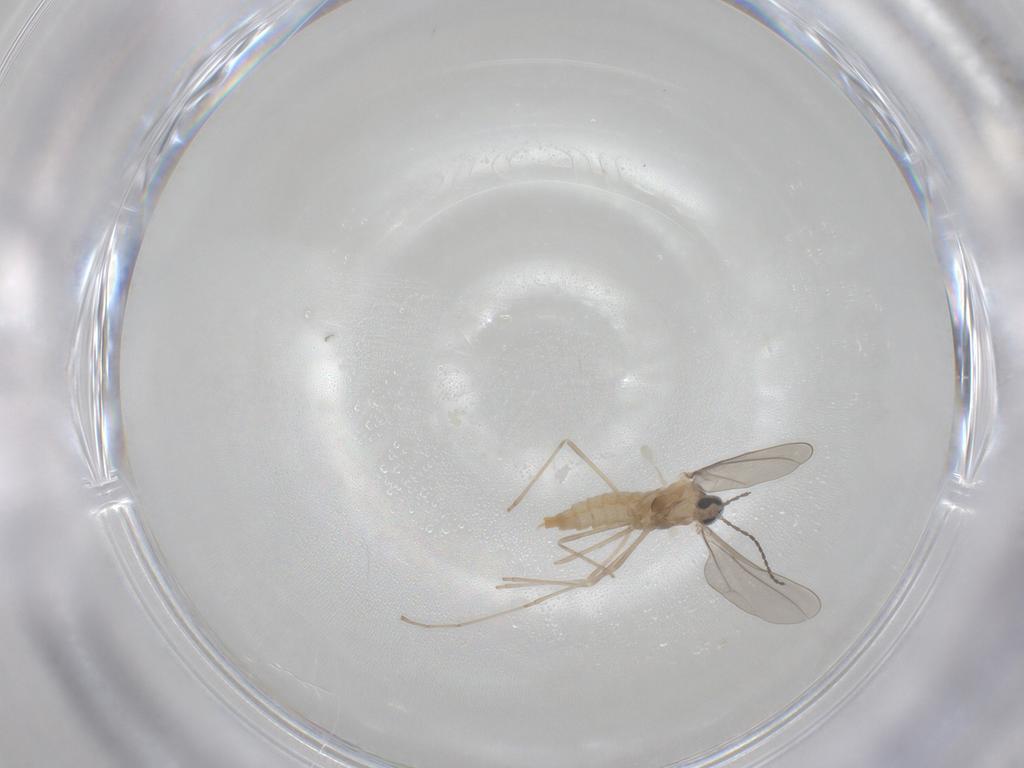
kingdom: Animalia
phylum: Arthropoda
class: Insecta
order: Diptera
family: Cecidomyiidae
